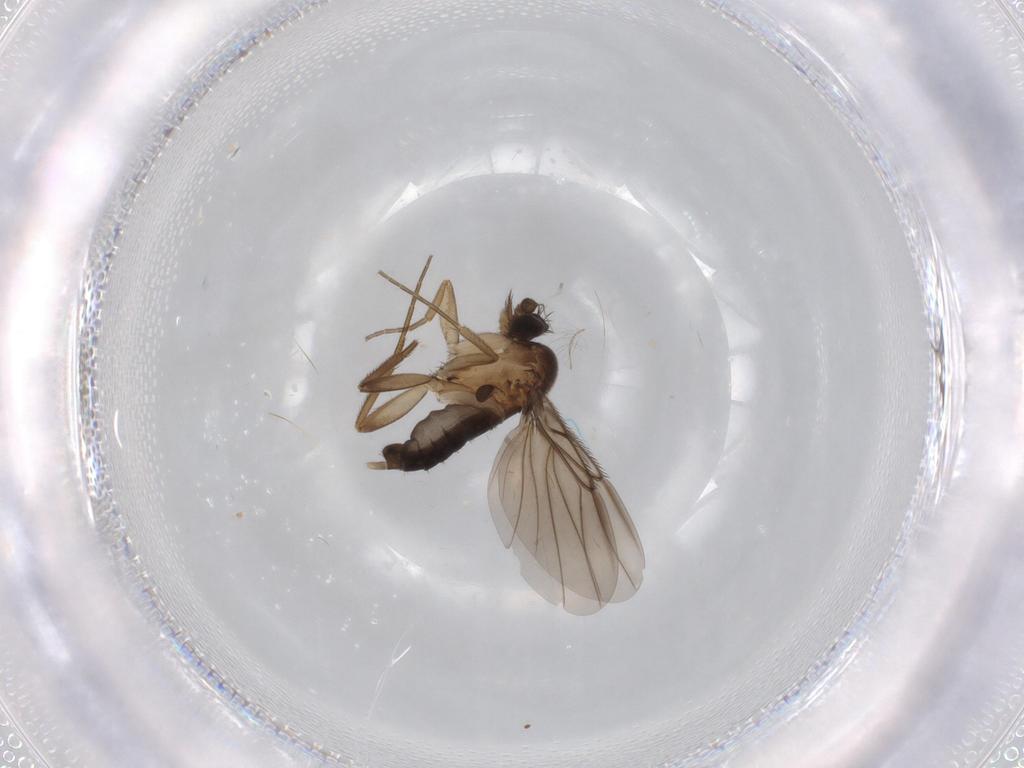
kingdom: Animalia
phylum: Arthropoda
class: Insecta
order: Diptera
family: Phoridae
